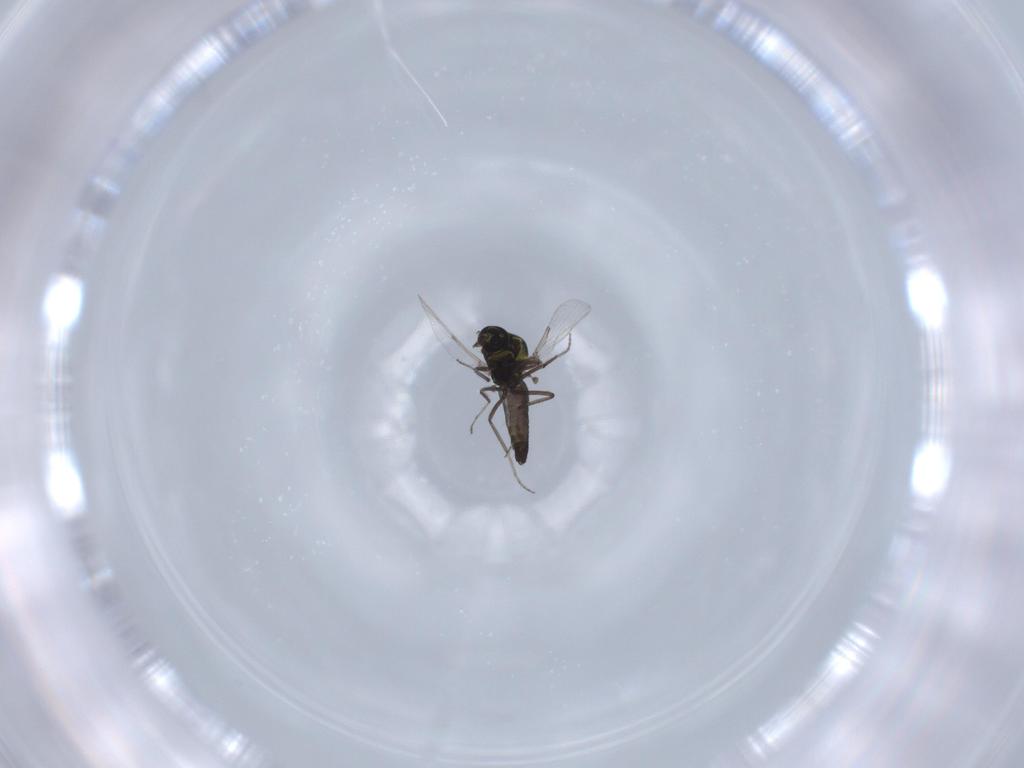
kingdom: Animalia
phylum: Arthropoda
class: Insecta
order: Diptera
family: Ceratopogonidae
